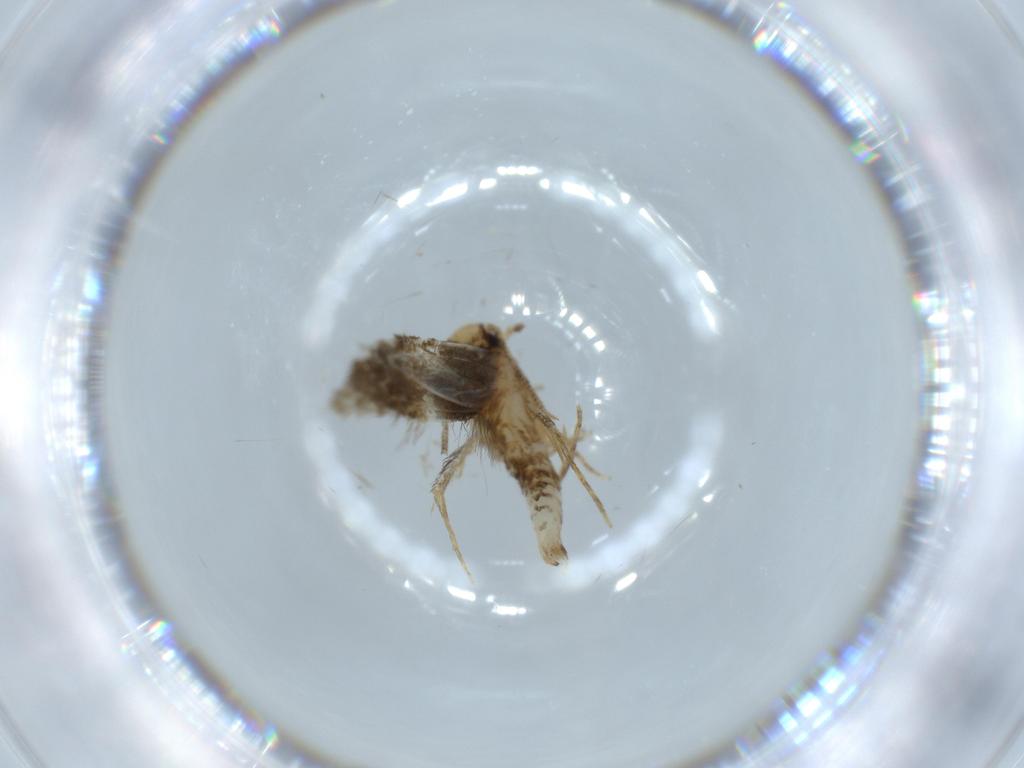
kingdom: Animalia
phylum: Arthropoda
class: Insecta
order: Lepidoptera
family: Tineidae
